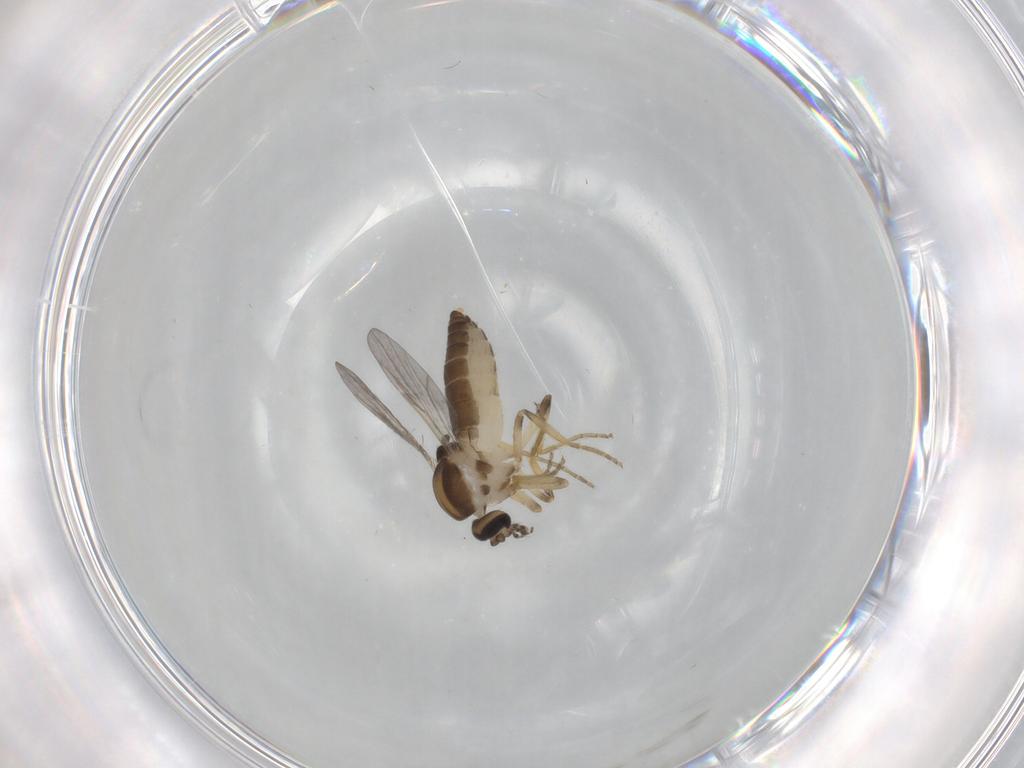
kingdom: Animalia
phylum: Arthropoda
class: Insecta
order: Diptera
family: Ceratopogonidae
